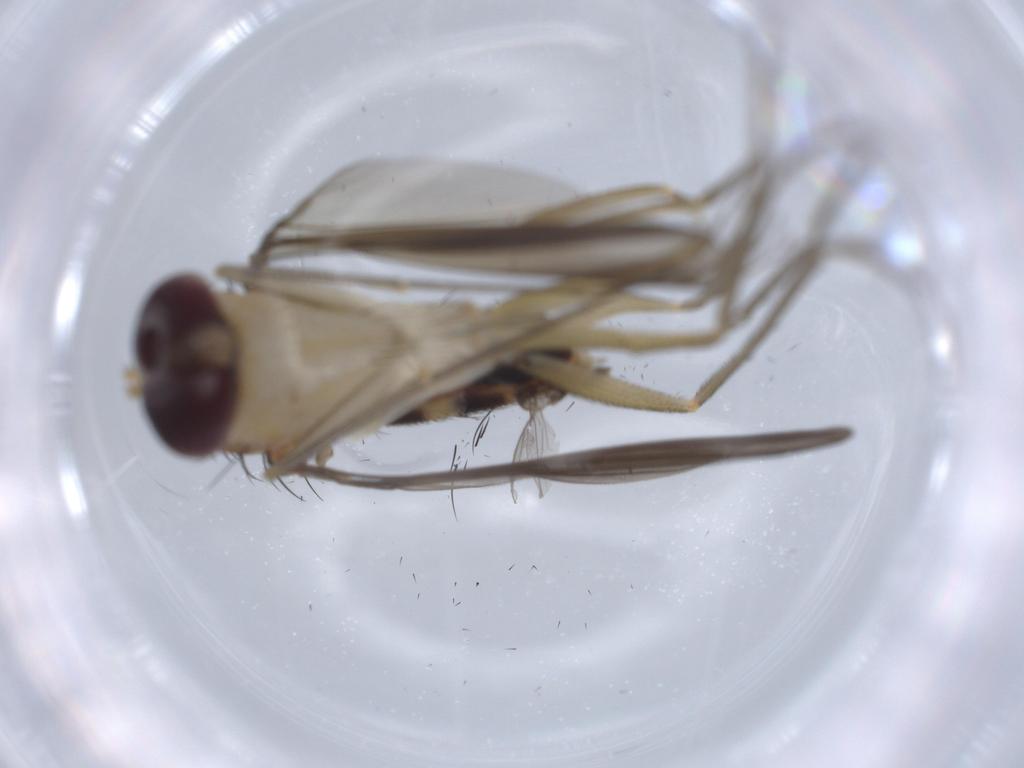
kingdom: Animalia
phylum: Arthropoda
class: Insecta
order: Diptera
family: Dolichopodidae
